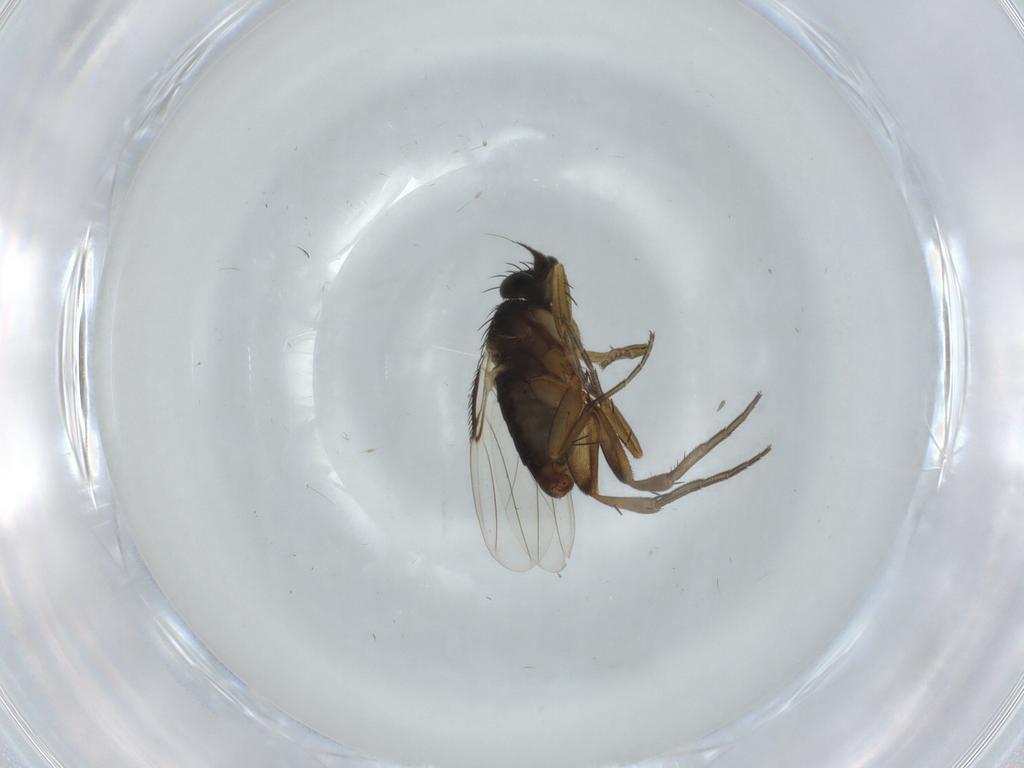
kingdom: Animalia
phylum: Arthropoda
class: Insecta
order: Diptera
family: Phoridae
